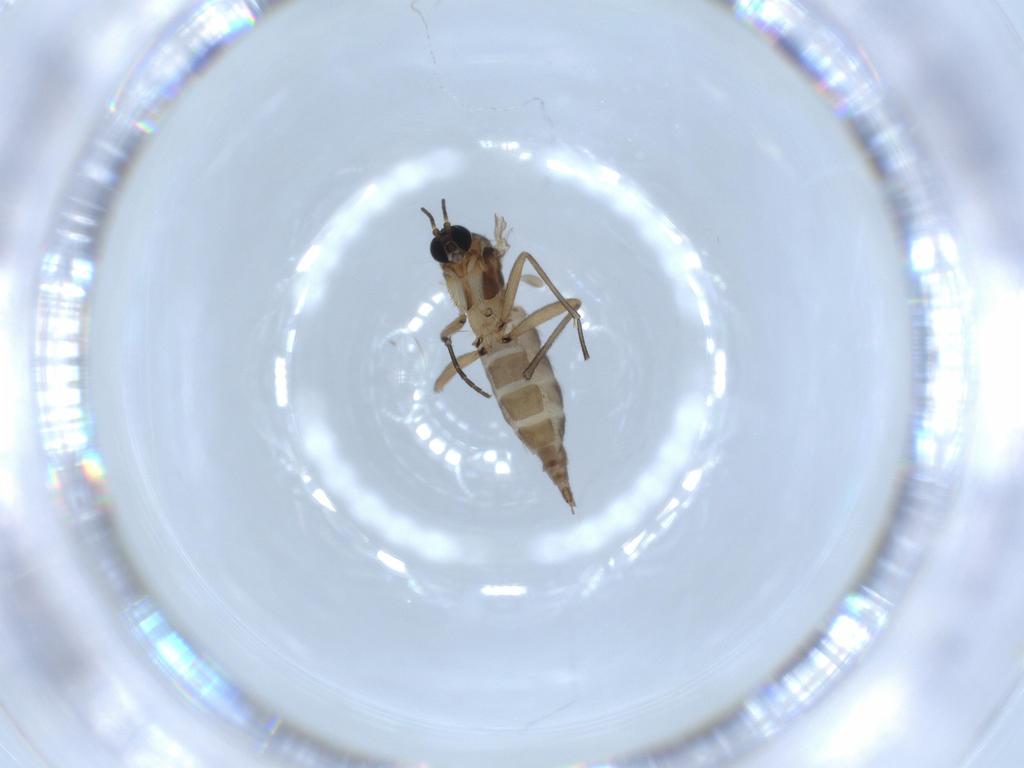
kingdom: Animalia
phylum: Arthropoda
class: Insecta
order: Diptera
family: Sciaridae
